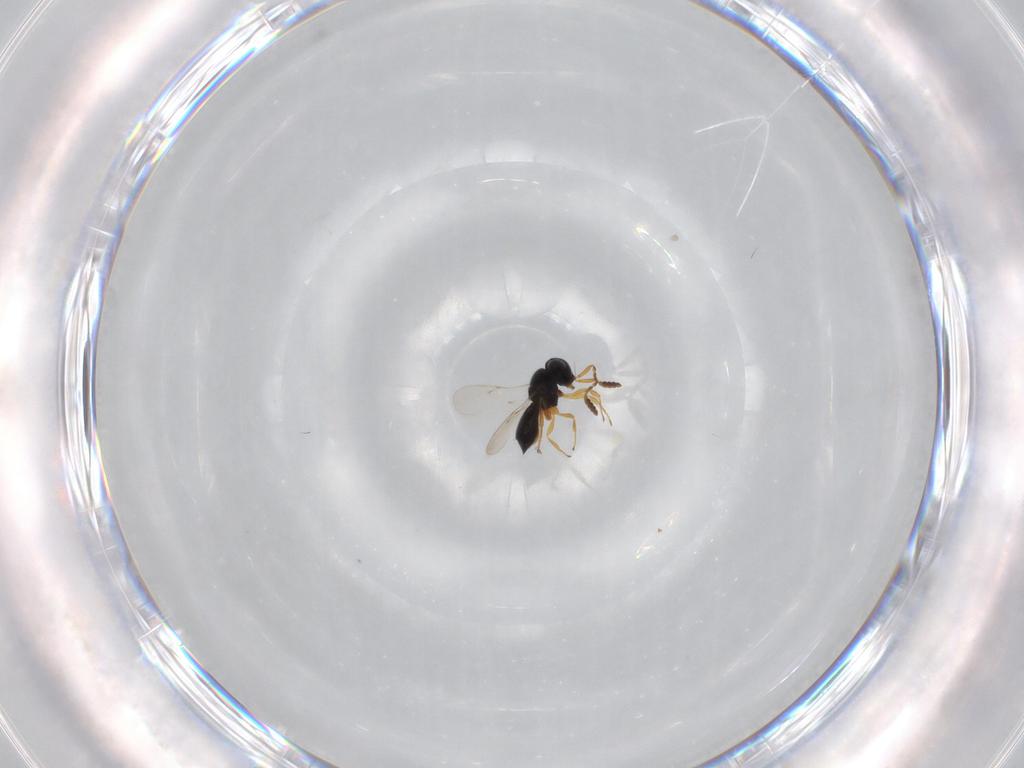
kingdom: Animalia
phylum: Arthropoda
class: Insecta
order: Hymenoptera
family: Scelionidae
